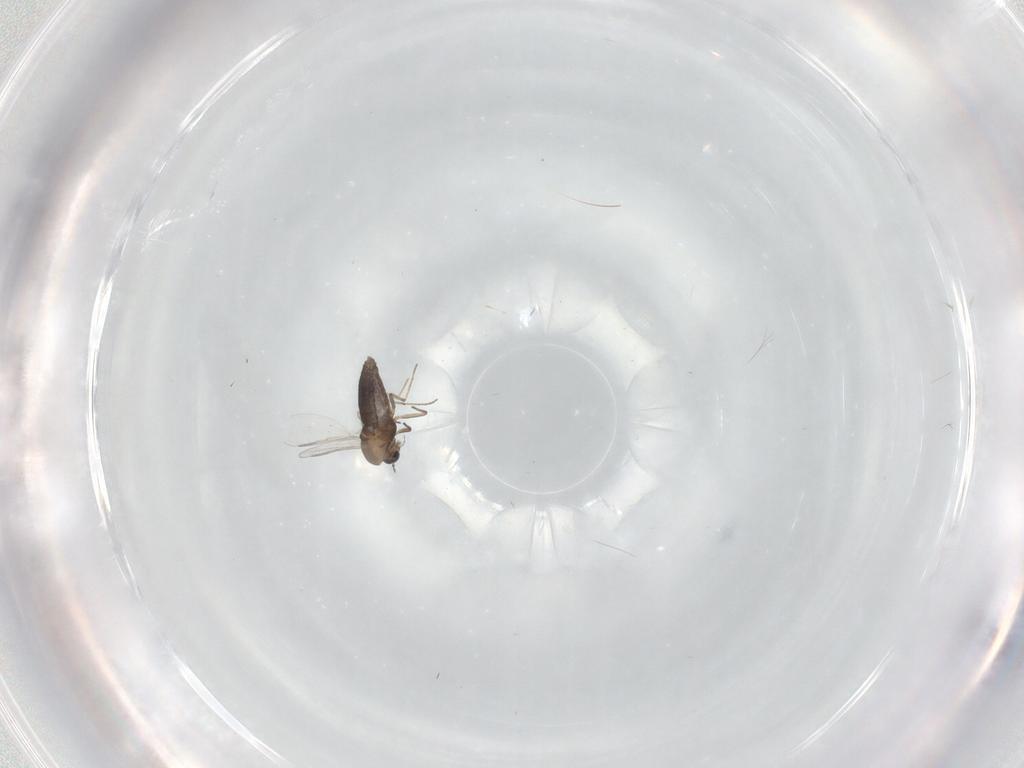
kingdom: Animalia
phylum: Arthropoda
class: Insecta
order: Diptera
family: Chironomidae
